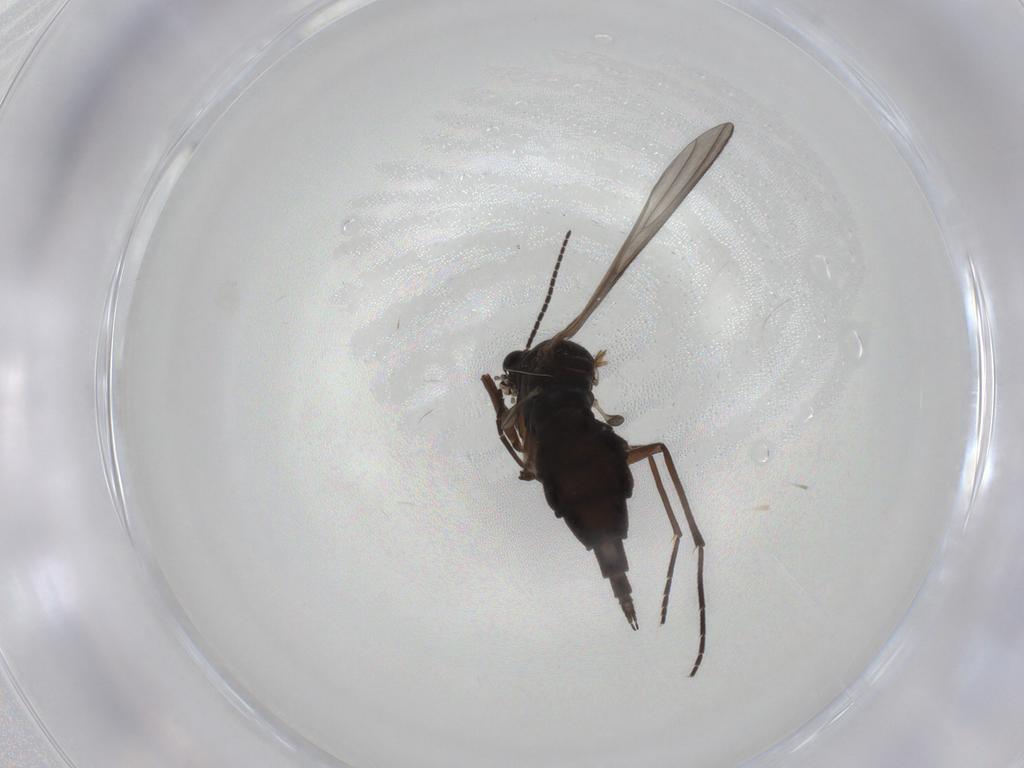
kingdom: Animalia
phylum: Arthropoda
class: Insecta
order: Diptera
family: Sciaridae
